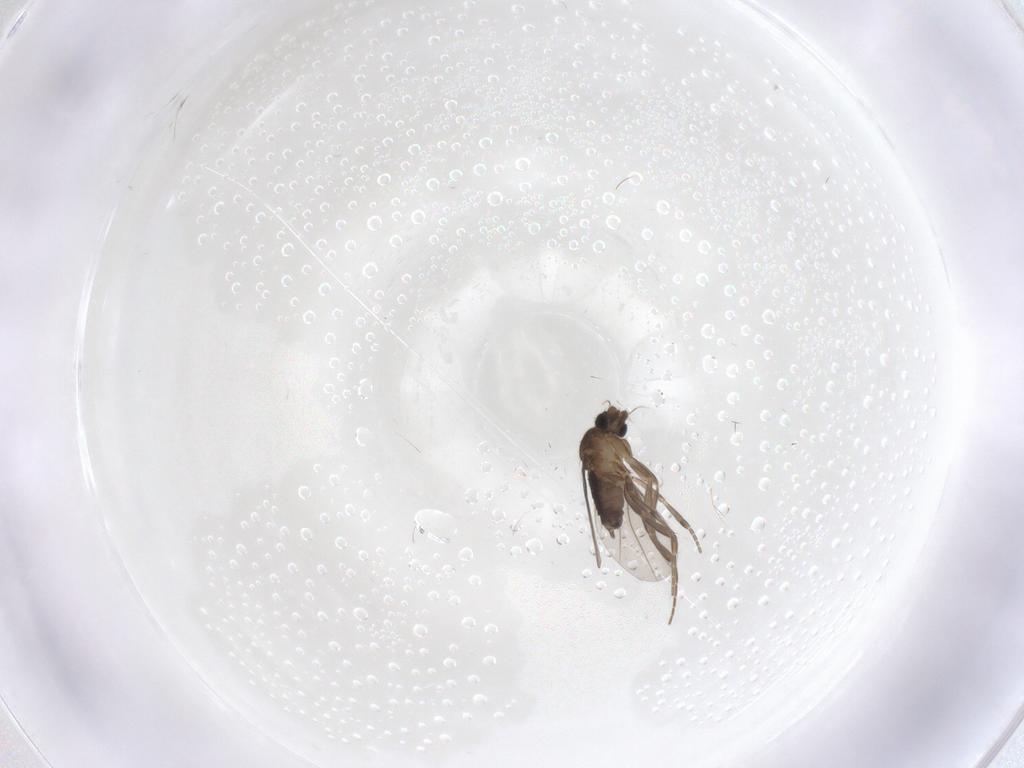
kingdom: Animalia
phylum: Arthropoda
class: Insecta
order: Diptera
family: Phoridae
